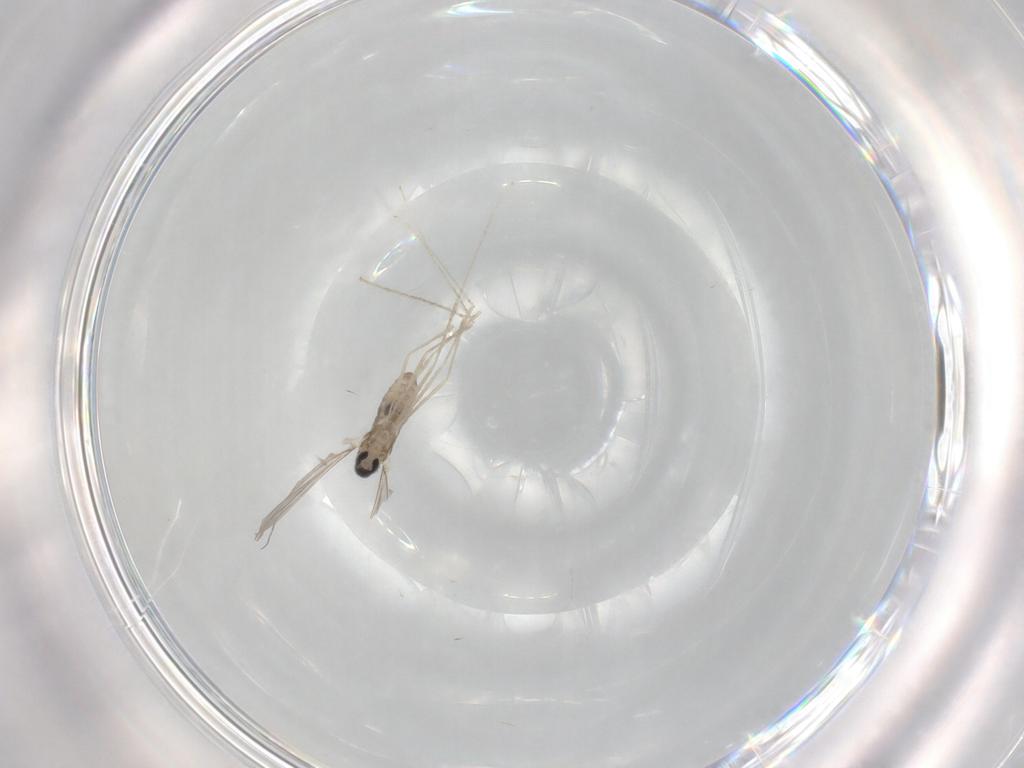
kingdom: Animalia
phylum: Arthropoda
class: Insecta
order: Diptera
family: Cecidomyiidae
